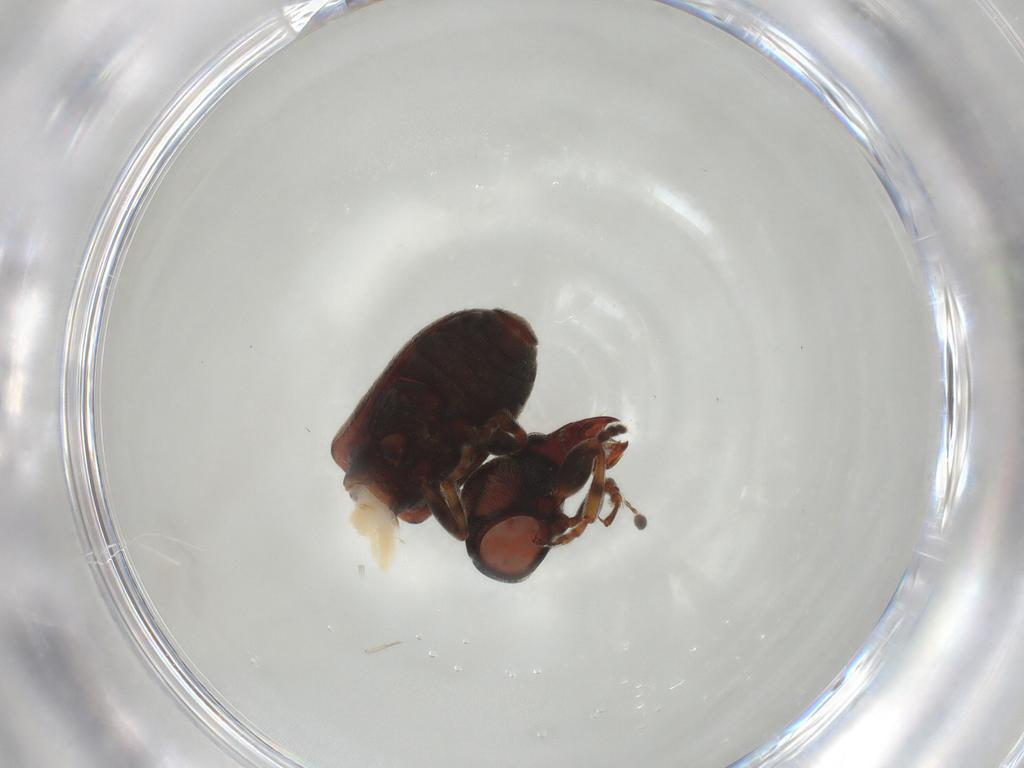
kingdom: Animalia
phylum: Arthropoda
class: Insecta
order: Coleoptera
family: Anthribidae
